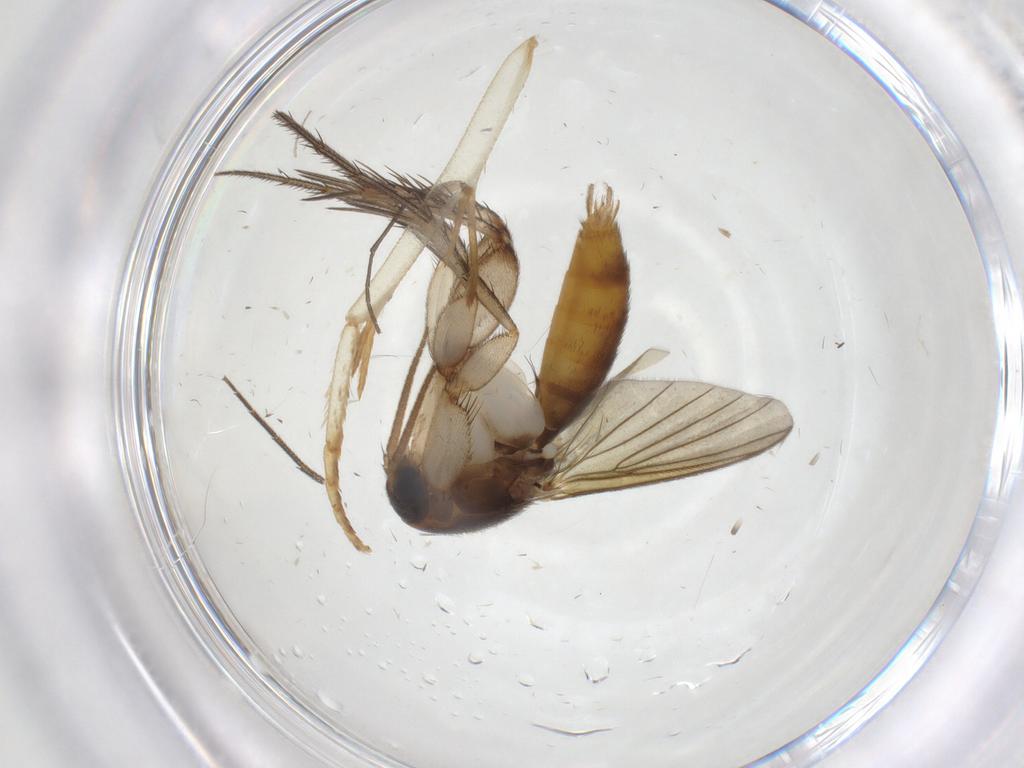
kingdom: Animalia
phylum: Arthropoda
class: Insecta
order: Diptera
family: Mycetophilidae
